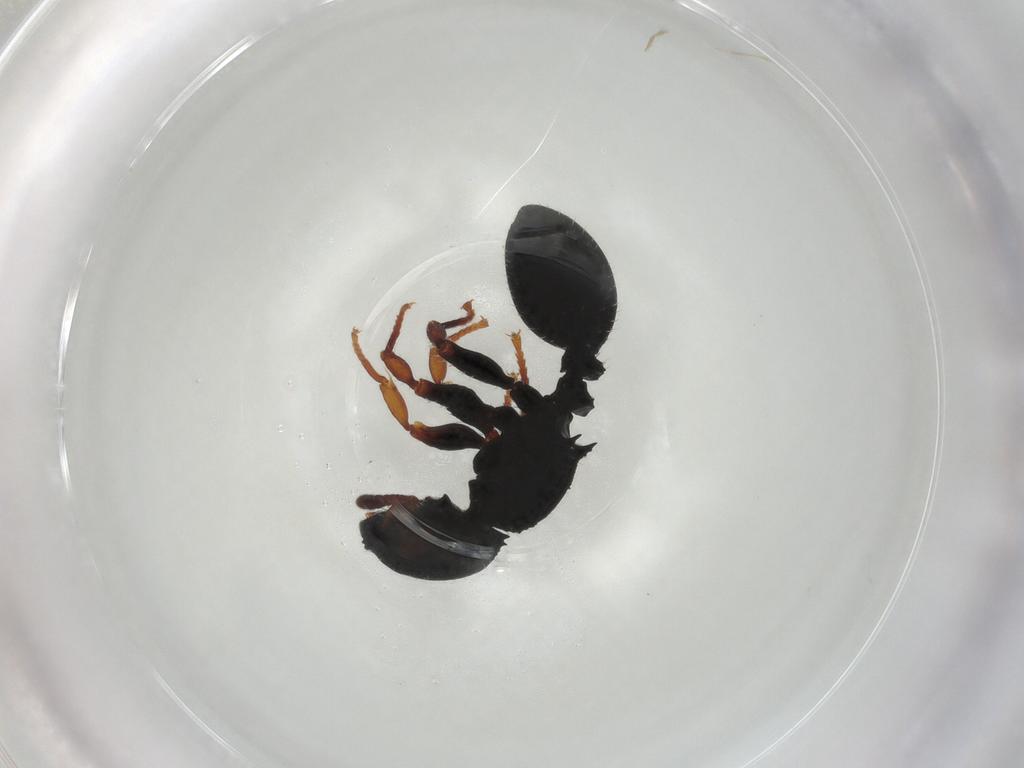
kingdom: Animalia
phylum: Arthropoda
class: Insecta
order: Hymenoptera
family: Formicidae
